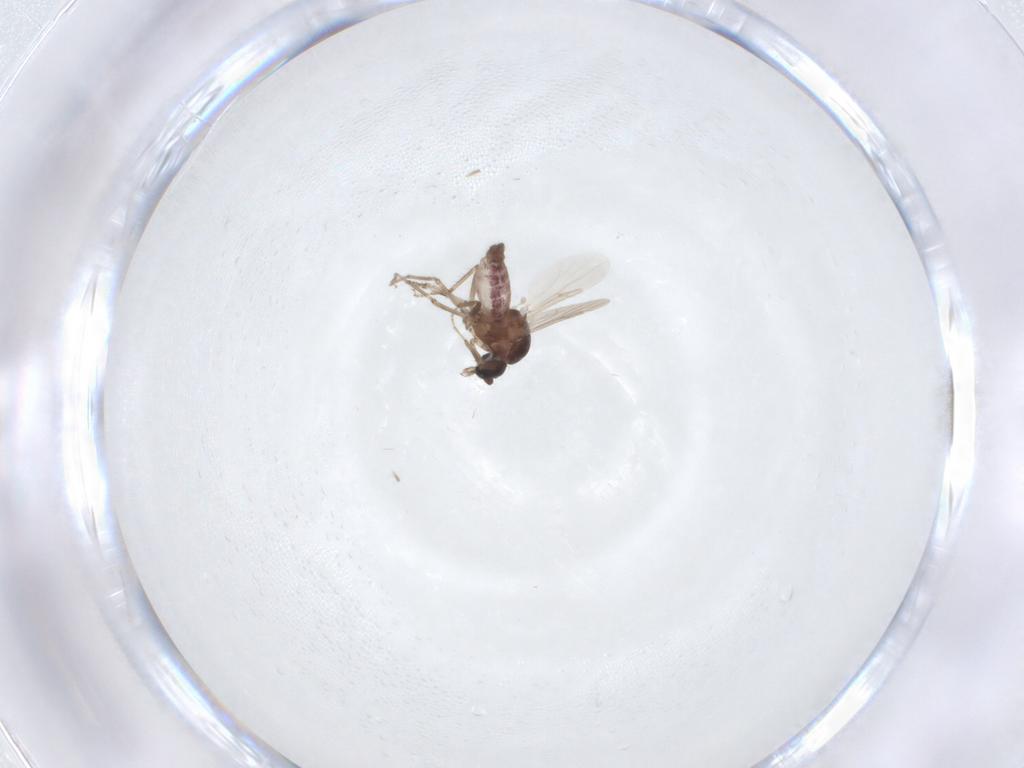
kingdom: Animalia
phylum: Arthropoda
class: Insecta
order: Diptera
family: Ceratopogonidae
